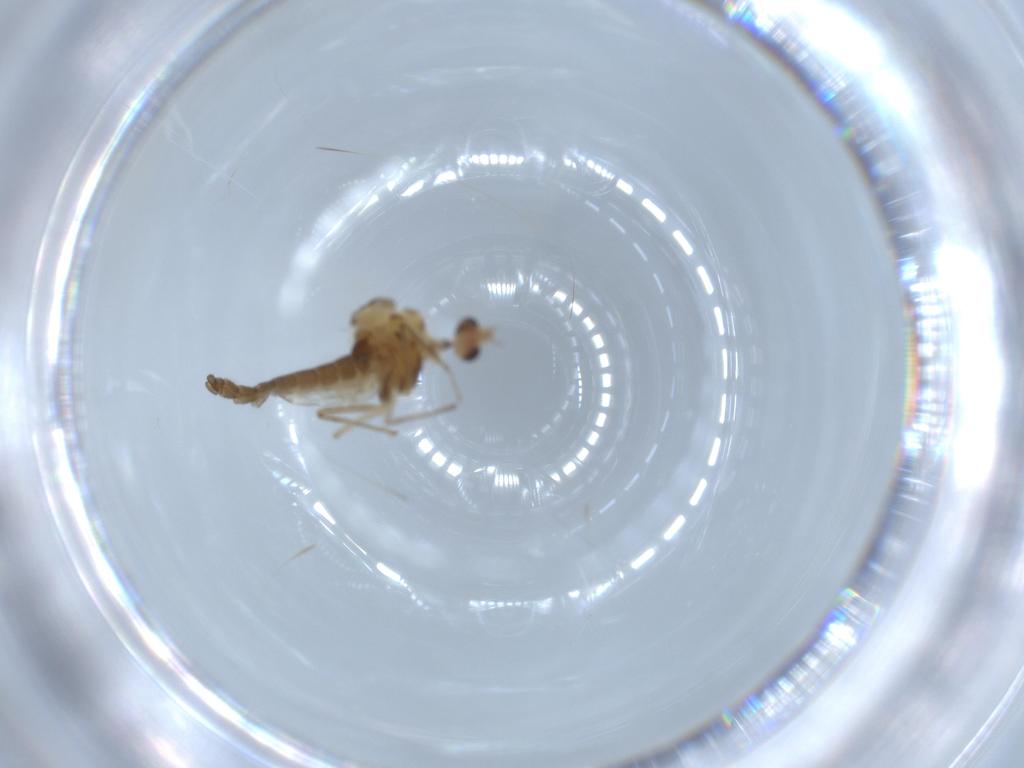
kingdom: Animalia
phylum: Arthropoda
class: Insecta
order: Diptera
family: Chironomidae
